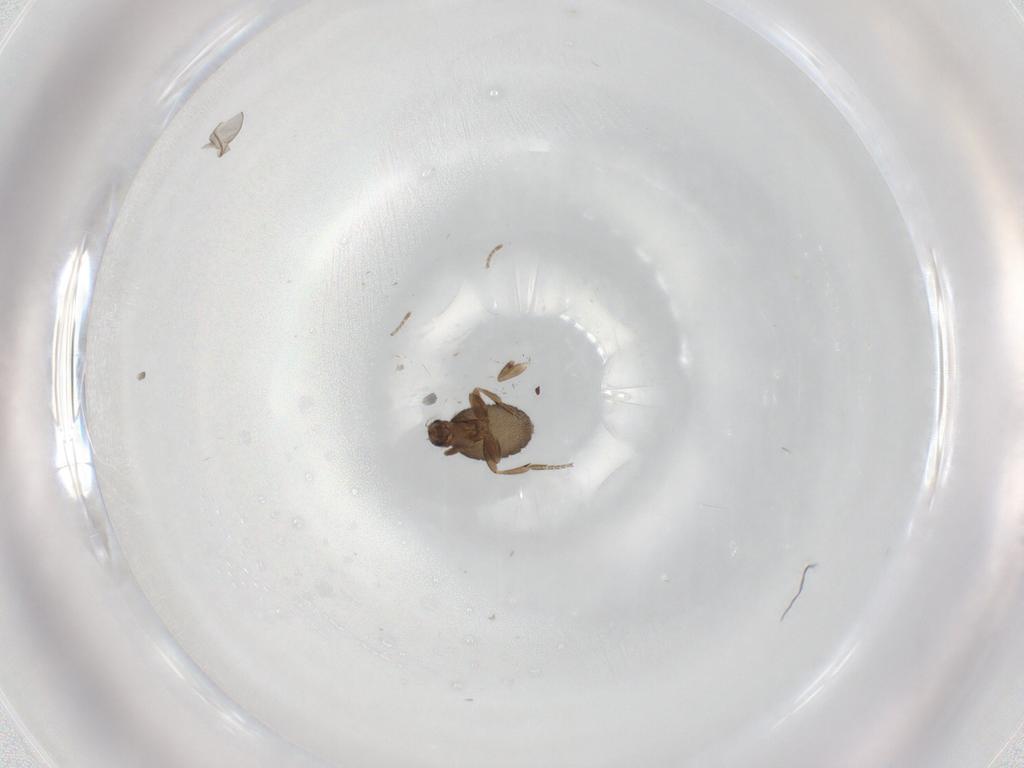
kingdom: Animalia
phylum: Arthropoda
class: Insecta
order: Diptera
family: Phoridae
